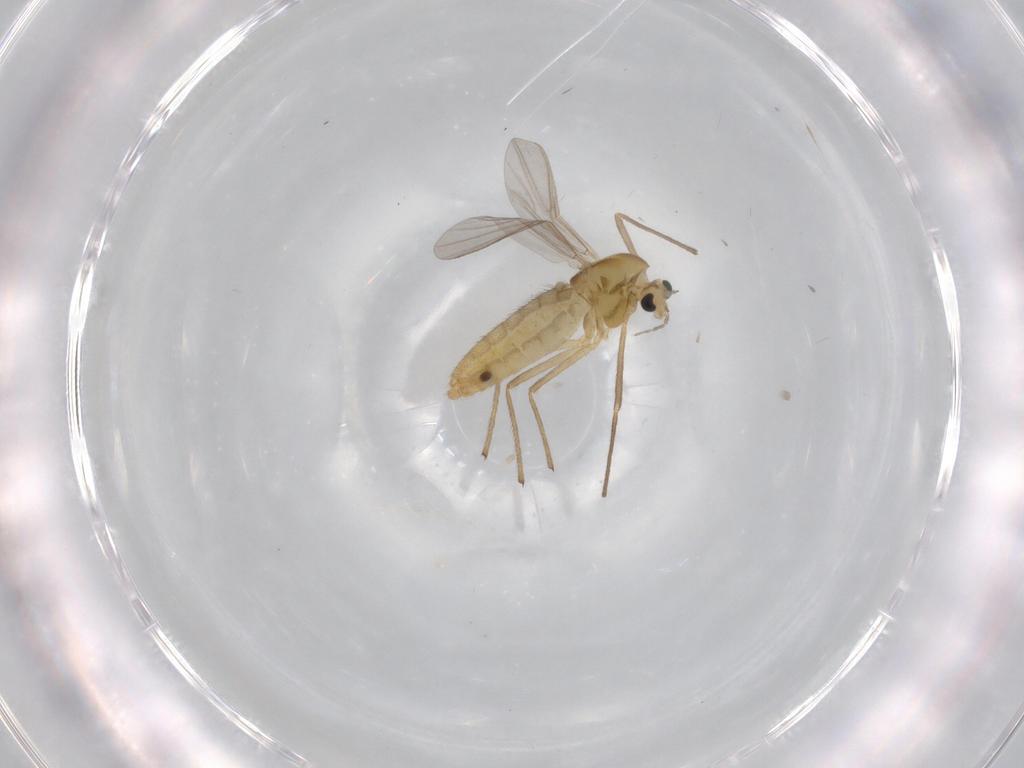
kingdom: Animalia
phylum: Arthropoda
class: Insecta
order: Diptera
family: Chironomidae
